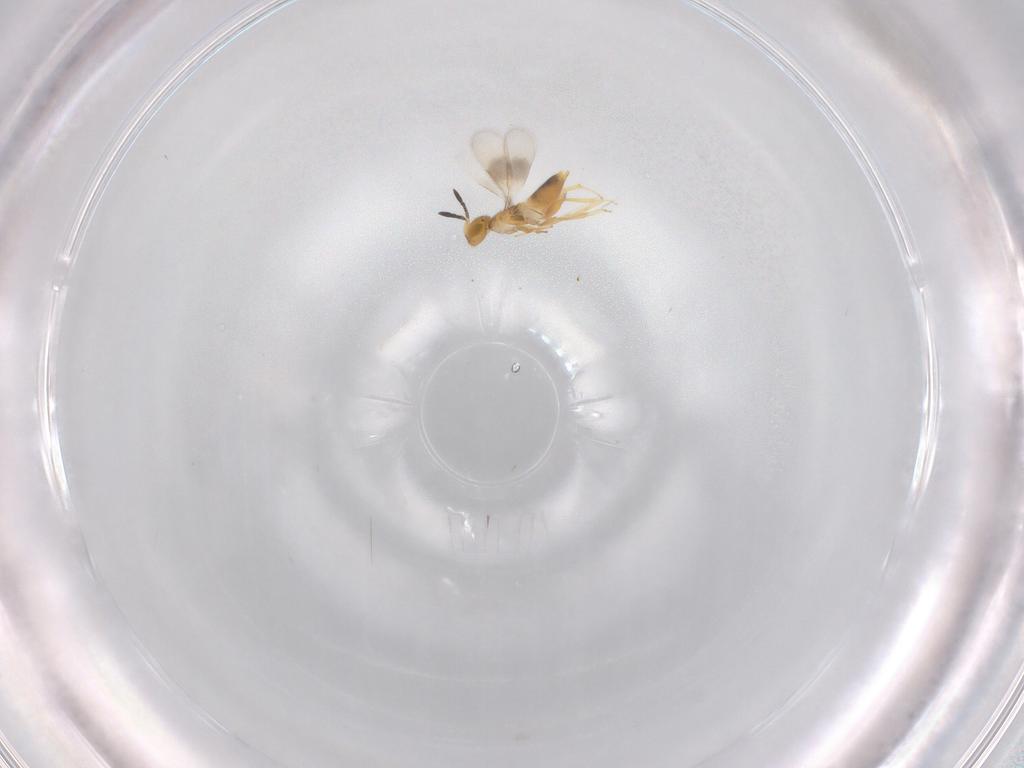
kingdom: Animalia
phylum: Arthropoda
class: Insecta
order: Hymenoptera
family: Encyrtidae
